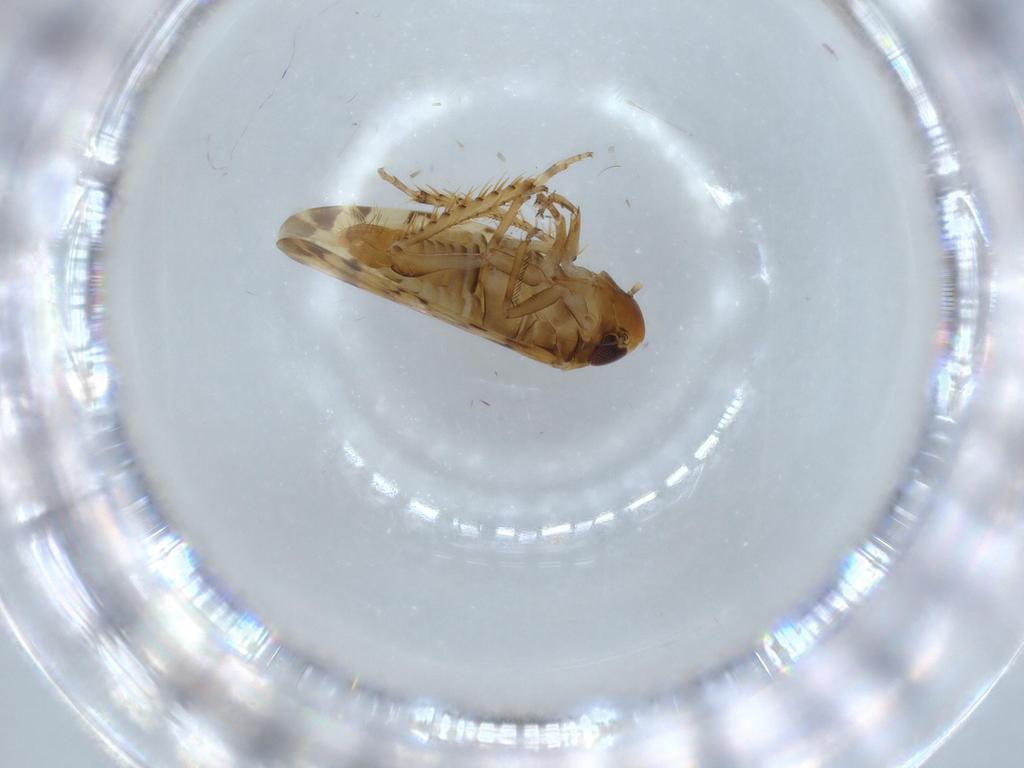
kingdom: Animalia
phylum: Arthropoda
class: Insecta
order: Hemiptera
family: Cicadellidae
